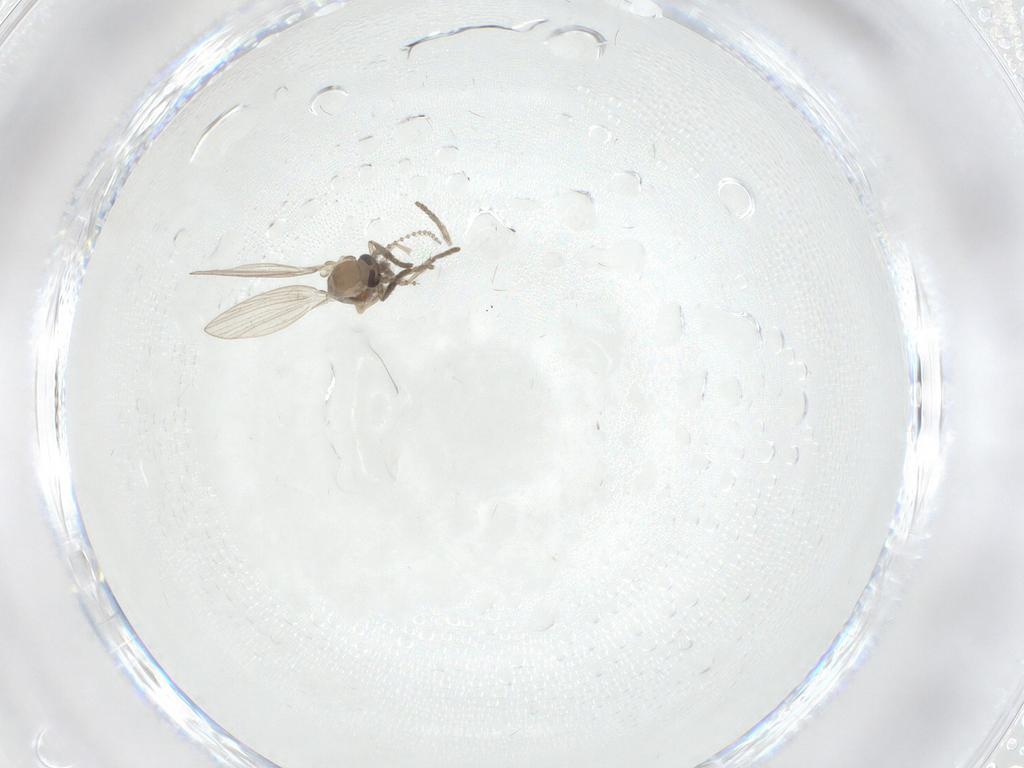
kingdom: Animalia
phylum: Arthropoda
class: Insecta
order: Diptera
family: Psychodidae
